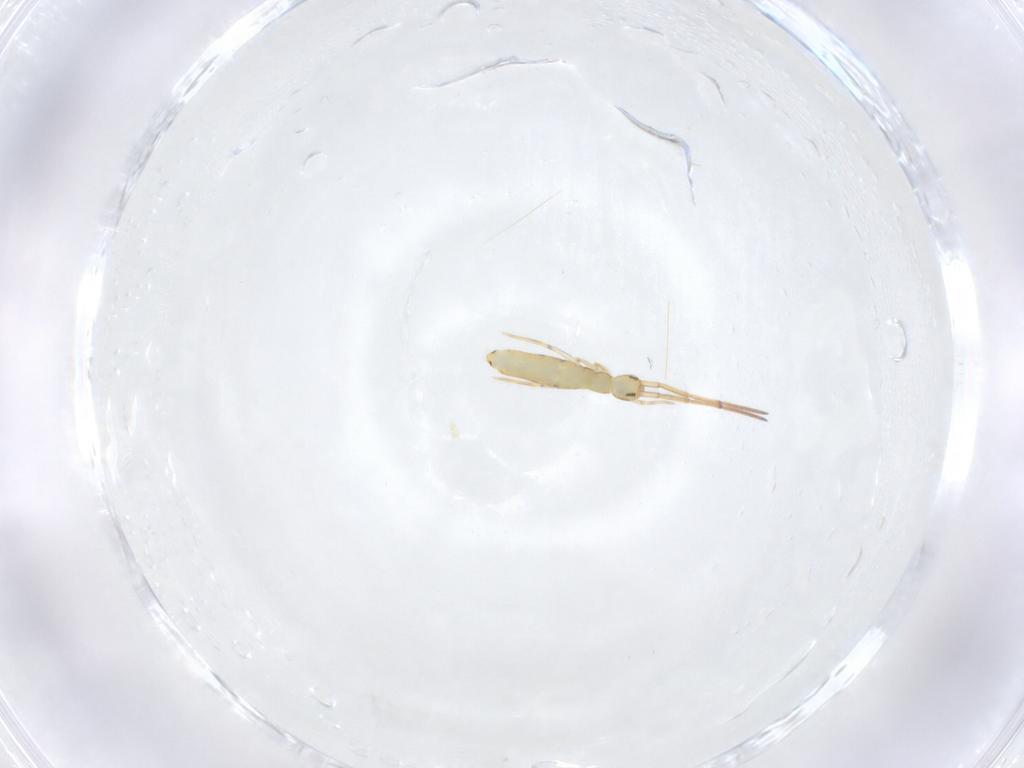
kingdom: Animalia
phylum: Arthropoda
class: Collembola
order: Entomobryomorpha
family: Entomobryidae
